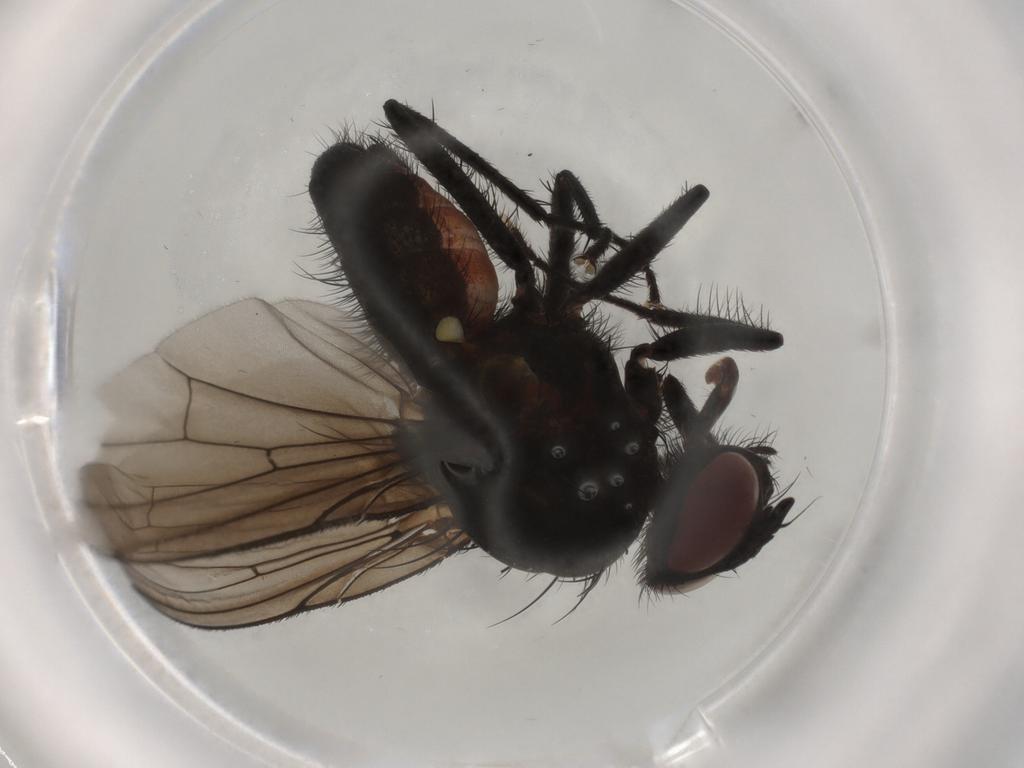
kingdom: Animalia
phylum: Arthropoda
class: Insecta
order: Diptera
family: Anthomyiidae
